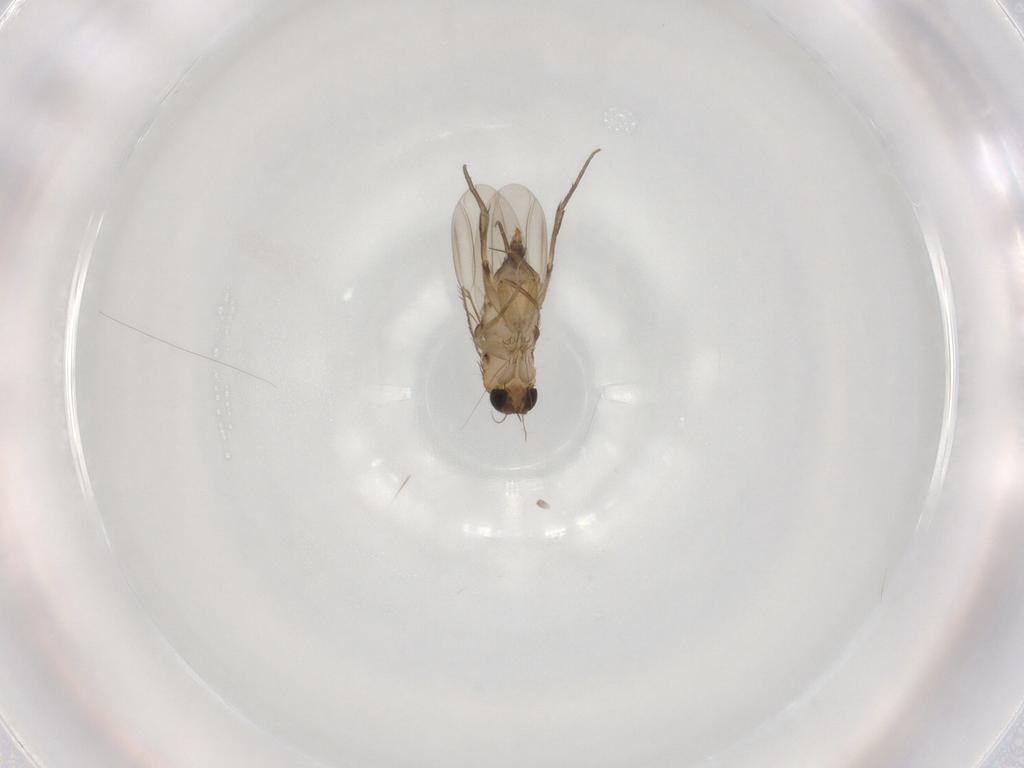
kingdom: Animalia
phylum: Arthropoda
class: Insecta
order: Diptera
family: Phoridae
